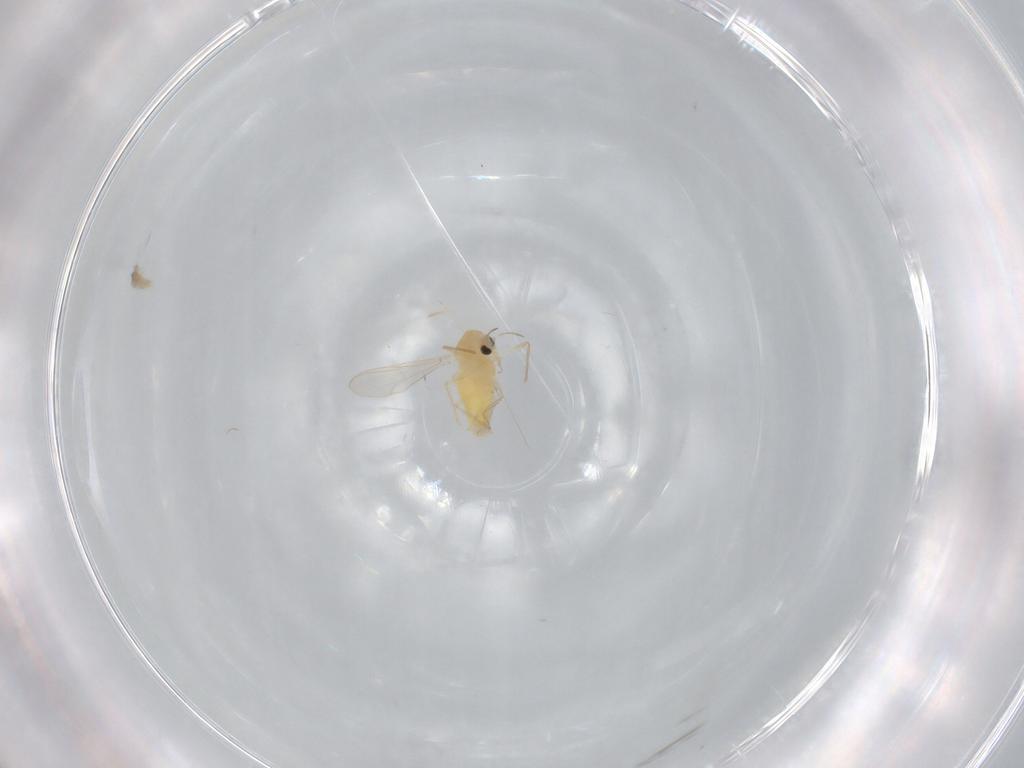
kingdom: Animalia
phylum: Arthropoda
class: Insecta
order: Diptera
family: Chironomidae
